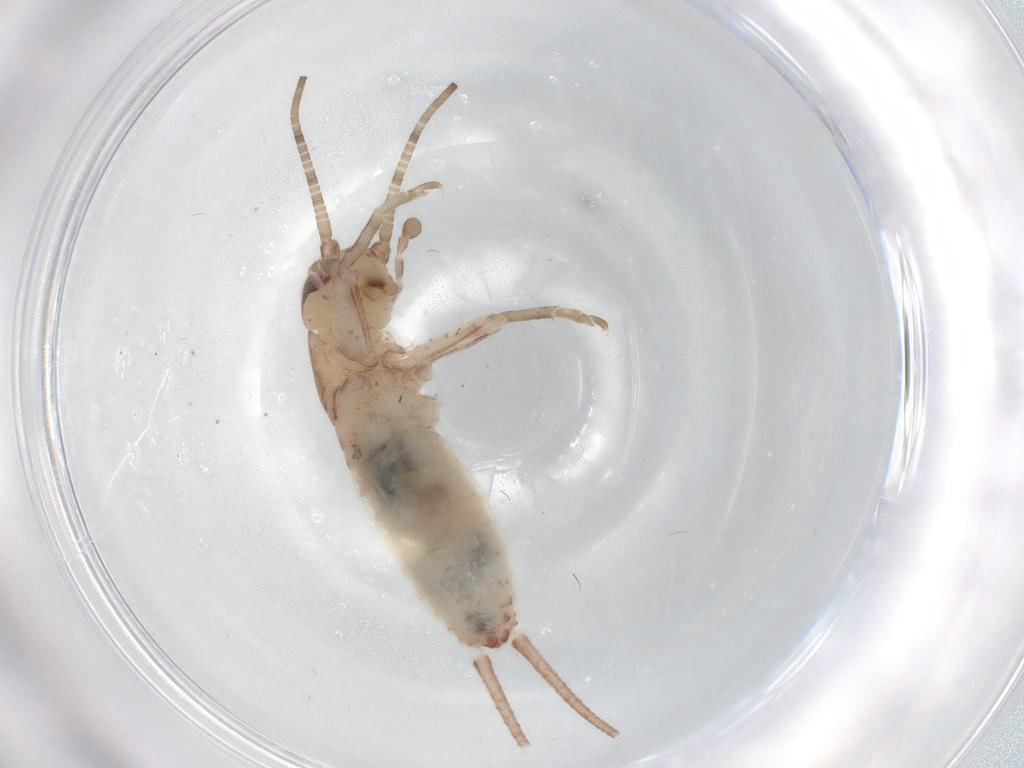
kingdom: Animalia
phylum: Arthropoda
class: Insecta
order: Orthoptera
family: Mogoplistidae
